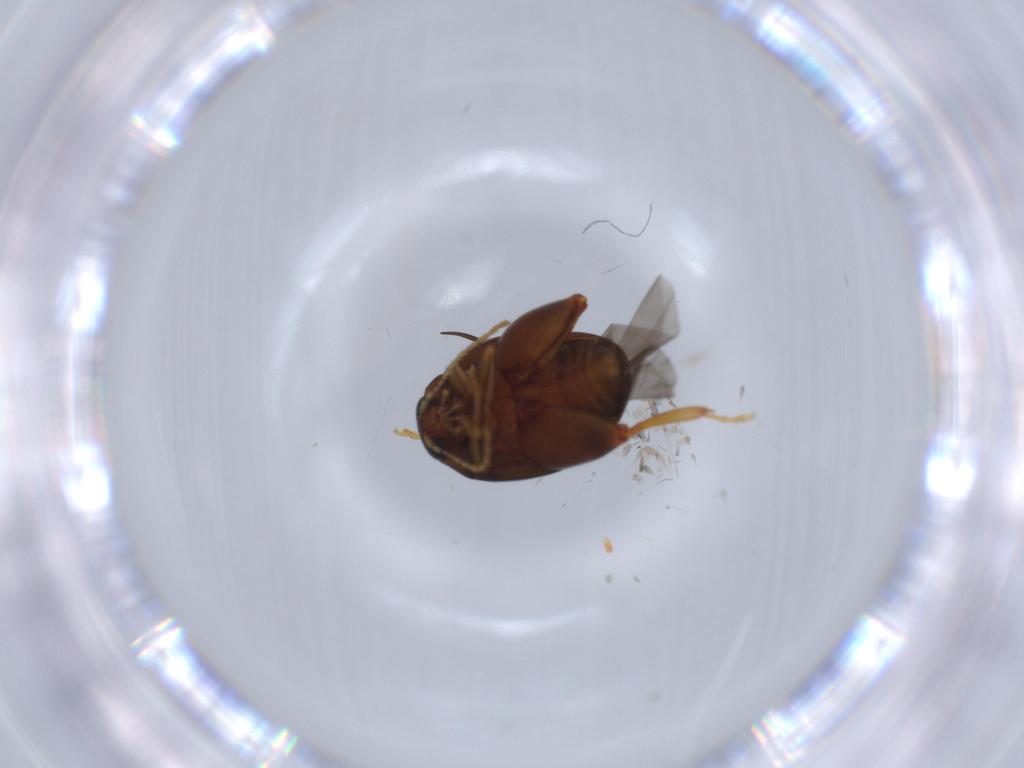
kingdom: Animalia
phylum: Arthropoda
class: Insecta
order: Coleoptera
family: Chrysomelidae
